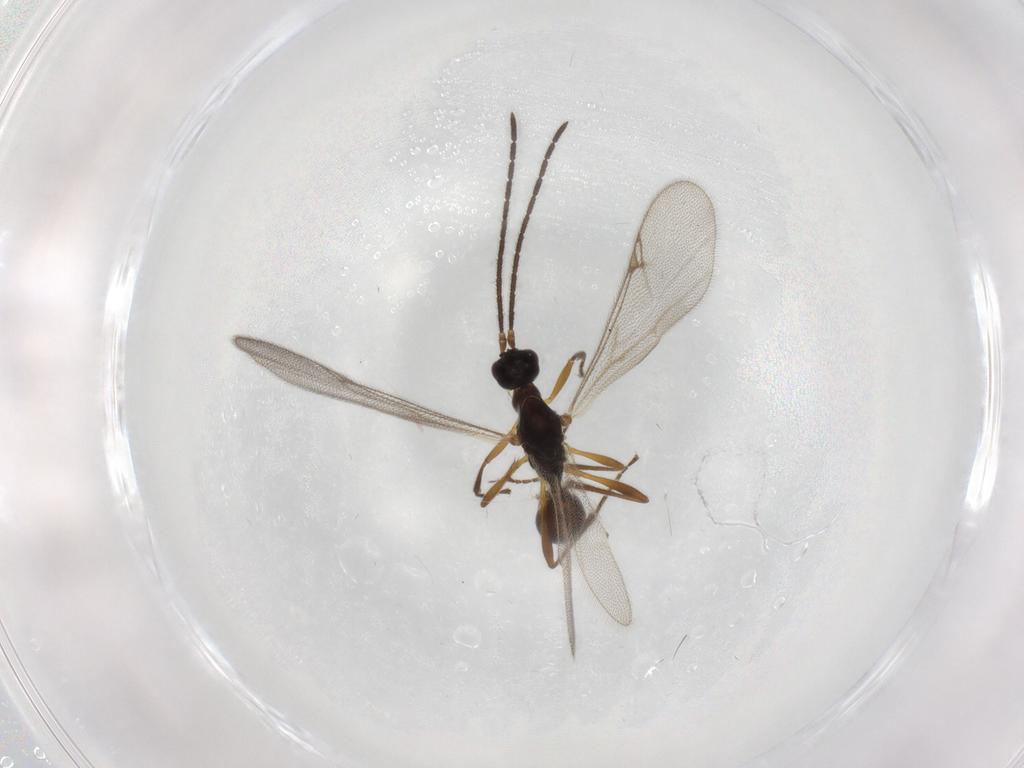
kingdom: Animalia
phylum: Arthropoda
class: Insecta
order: Hymenoptera
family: Proctotrupidae
